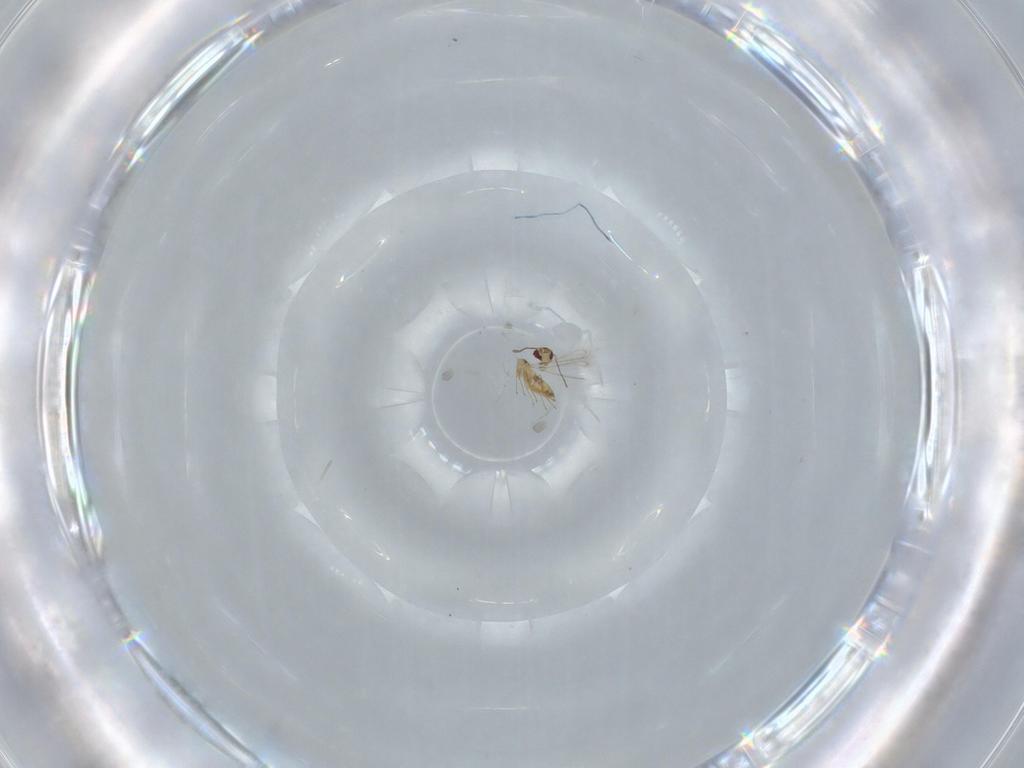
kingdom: Animalia
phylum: Arthropoda
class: Insecta
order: Hymenoptera
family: Mymaridae
